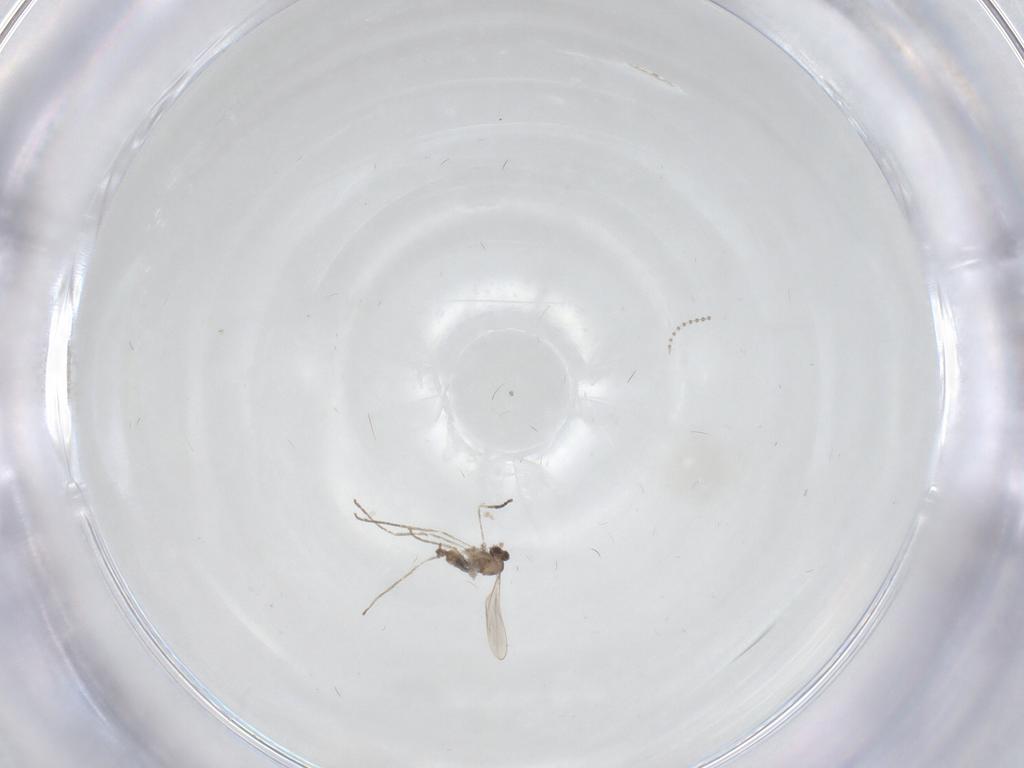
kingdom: Animalia
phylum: Arthropoda
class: Insecta
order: Diptera
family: Cecidomyiidae
